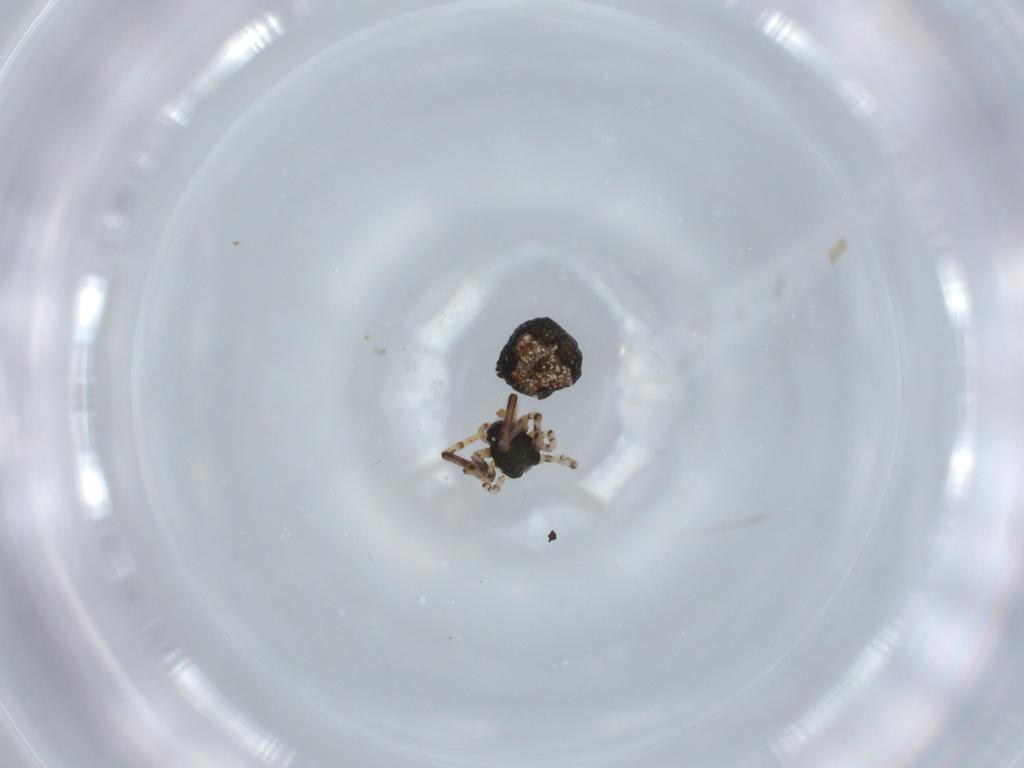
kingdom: Animalia
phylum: Arthropoda
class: Arachnida
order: Araneae
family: Theridiidae
